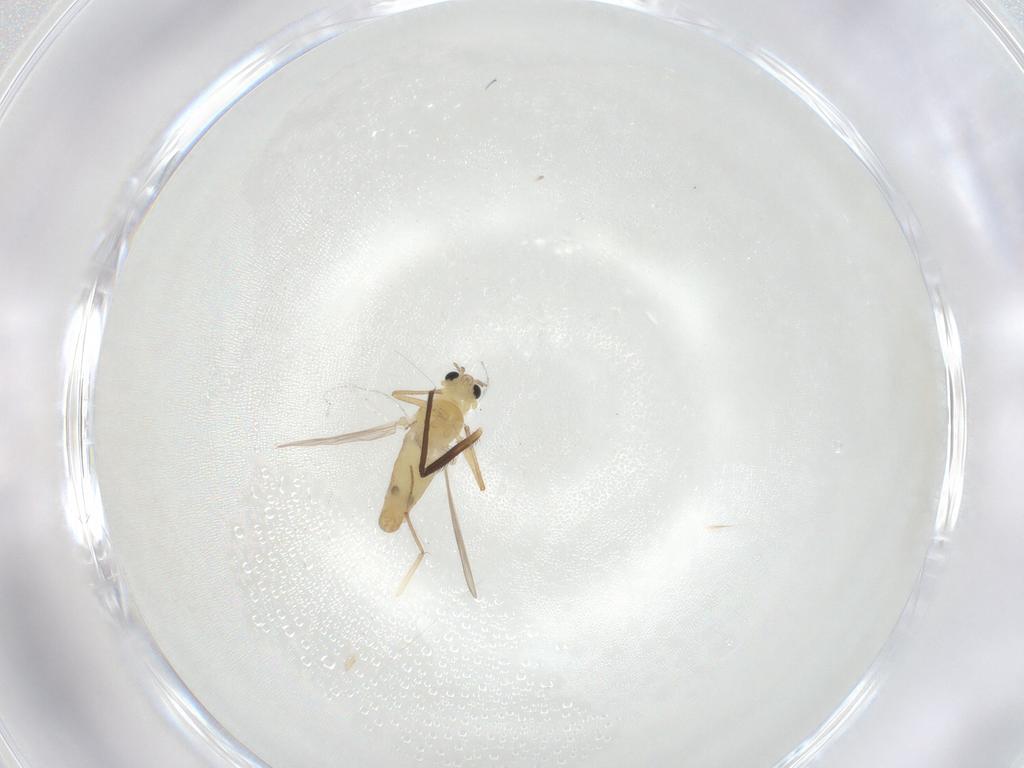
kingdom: Animalia
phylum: Arthropoda
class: Insecta
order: Diptera
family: Chironomidae
